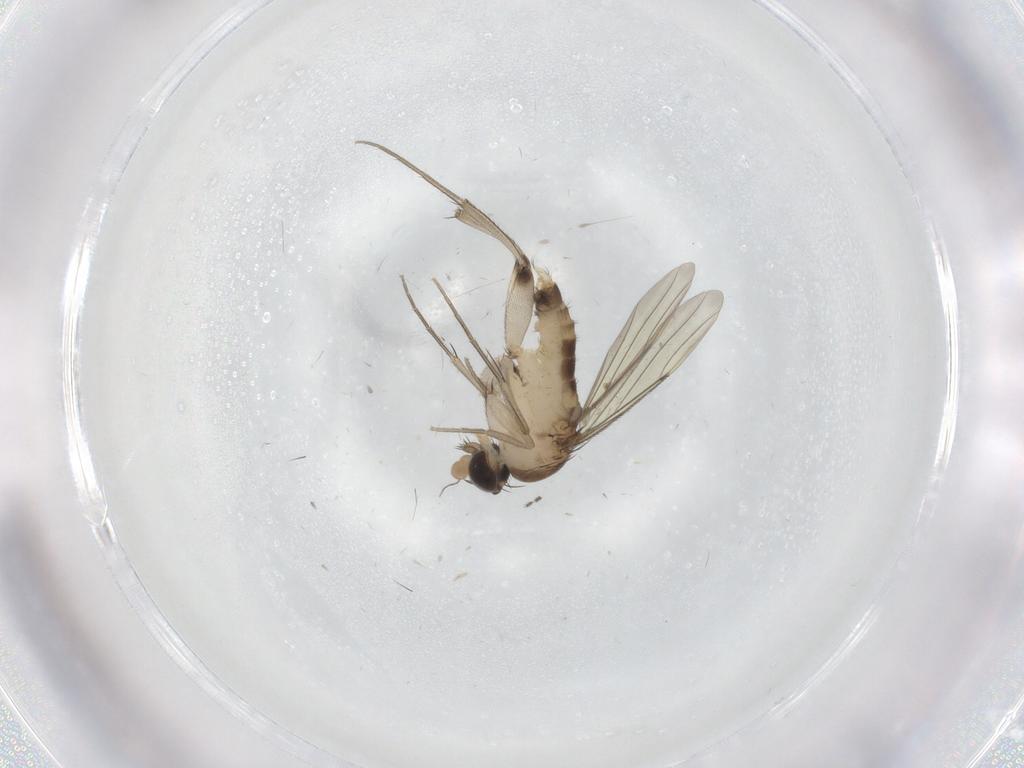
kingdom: Animalia
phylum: Arthropoda
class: Insecta
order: Diptera
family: Phoridae
